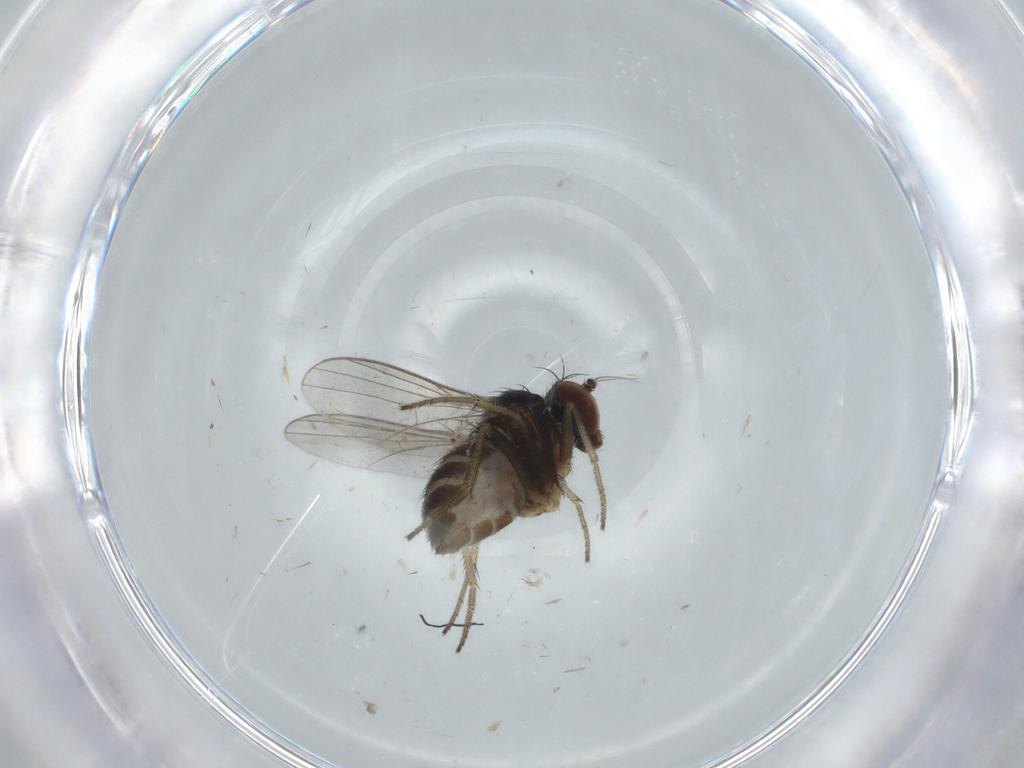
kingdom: Animalia
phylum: Arthropoda
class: Insecta
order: Diptera
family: Chironomidae
